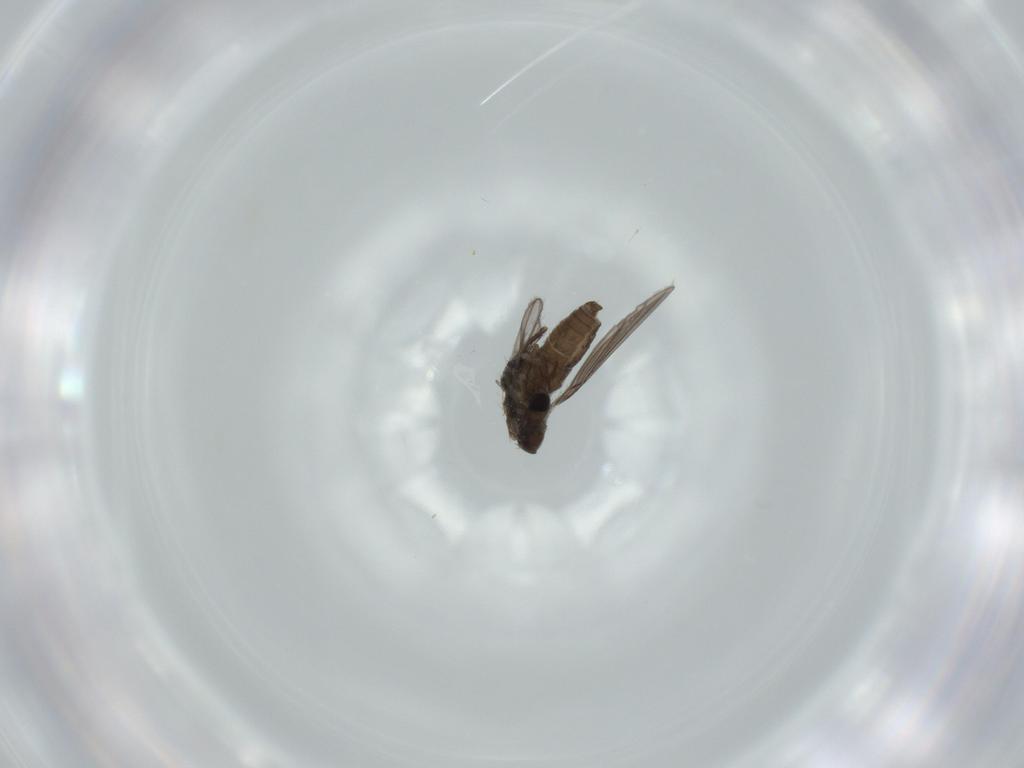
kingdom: Animalia
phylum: Arthropoda
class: Insecta
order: Diptera
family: Psychodidae
